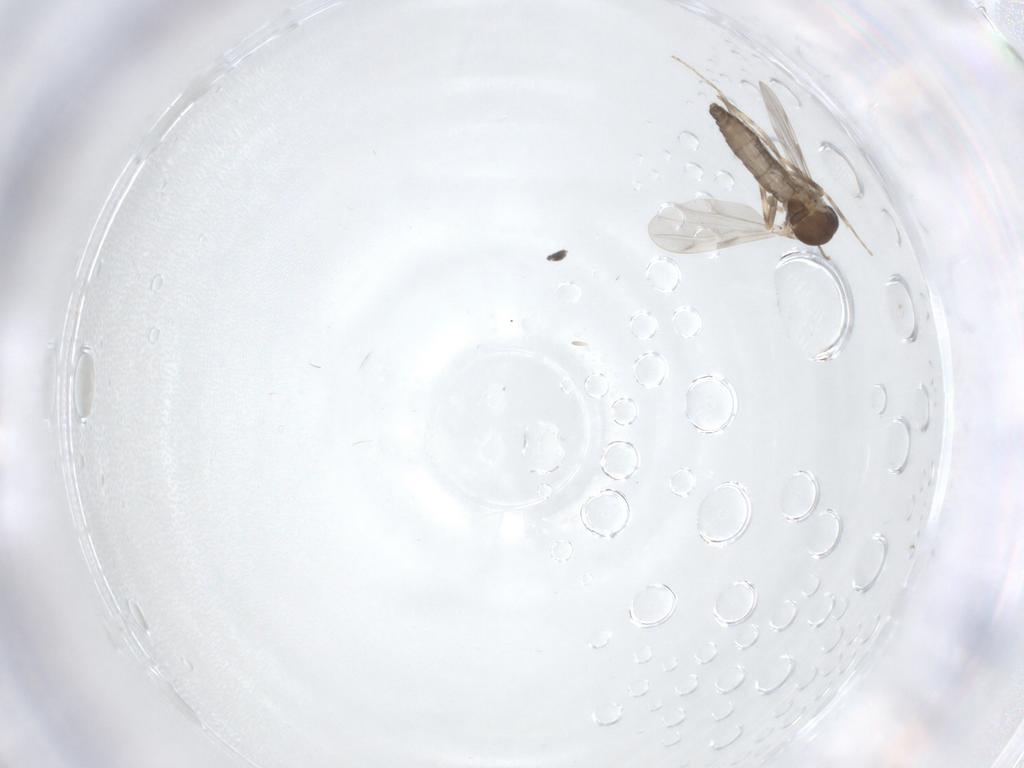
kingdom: Animalia
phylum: Arthropoda
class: Insecta
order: Diptera
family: Ceratopogonidae
